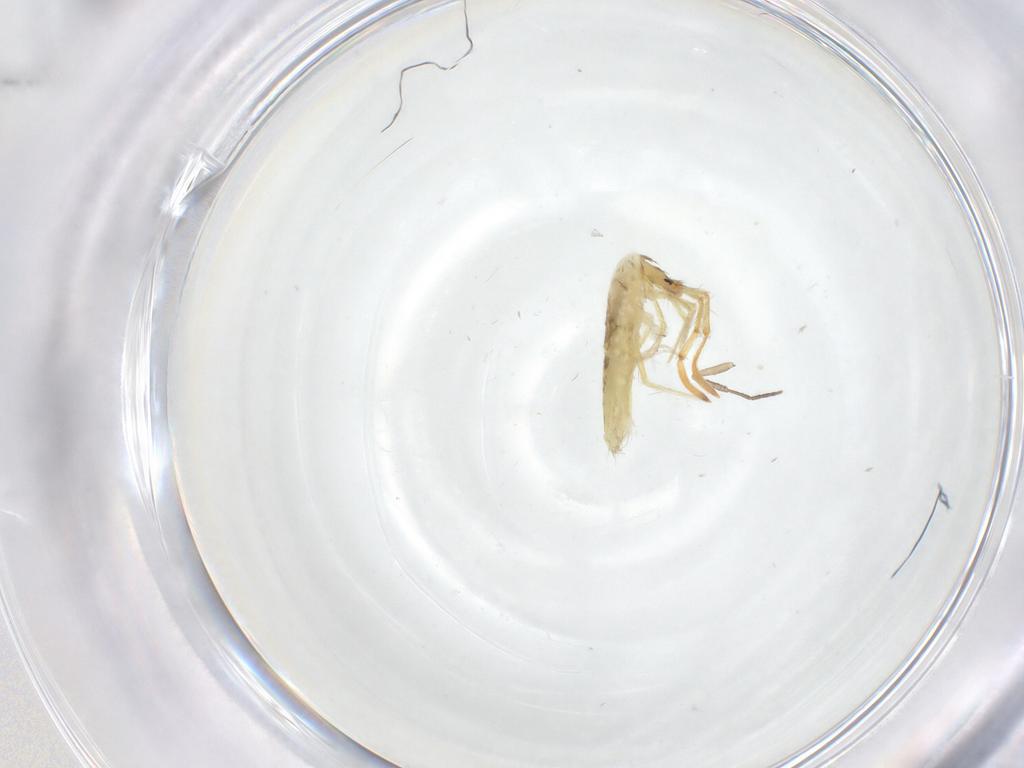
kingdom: Animalia
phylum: Arthropoda
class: Collembola
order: Entomobryomorpha
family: Entomobryidae
